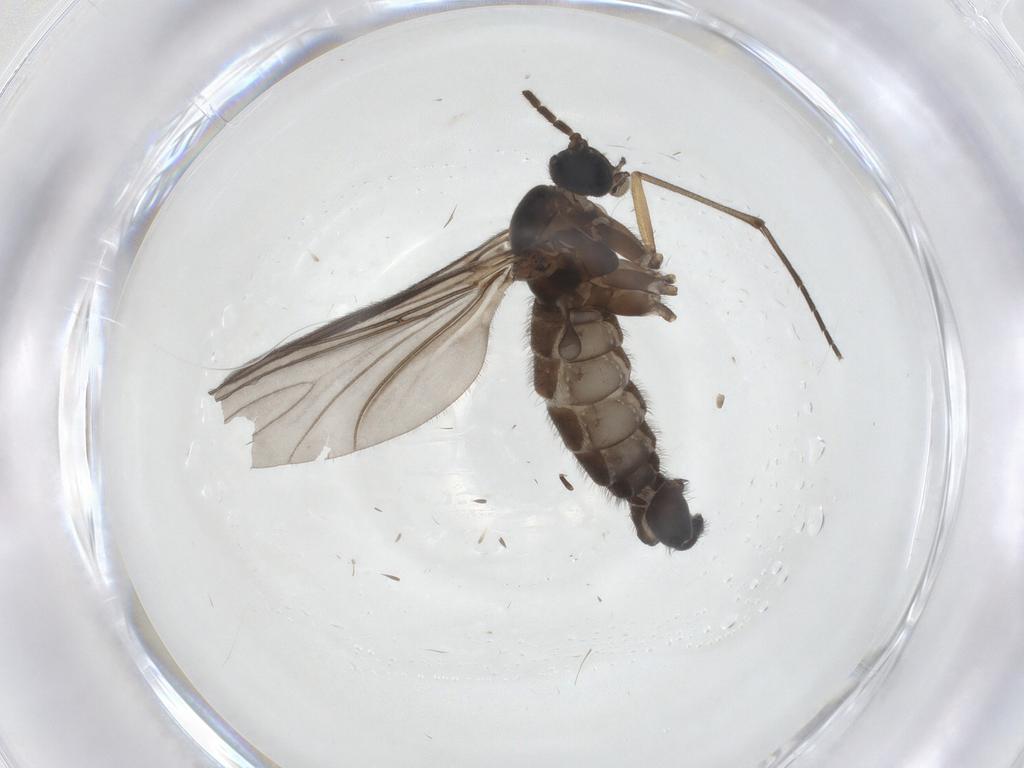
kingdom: Animalia
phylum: Arthropoda
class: Insecta
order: Diptera
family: Sciaridae
